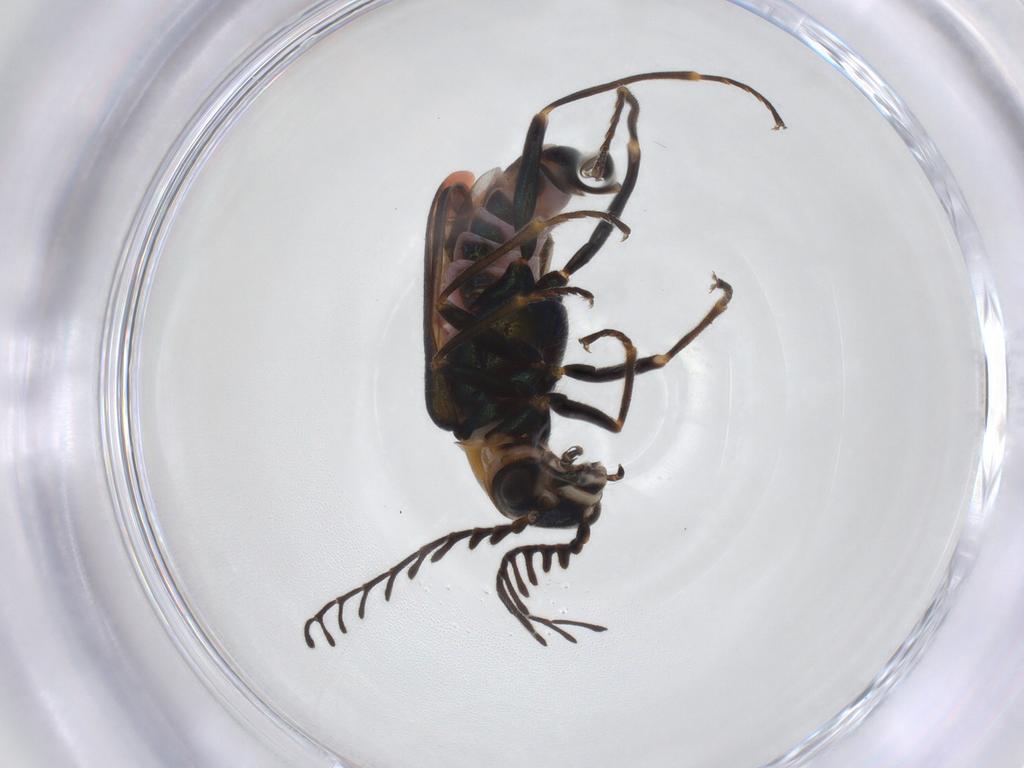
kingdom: Animalia
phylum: Arthropoda
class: Insecta
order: Coleoptera
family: Melyridae
